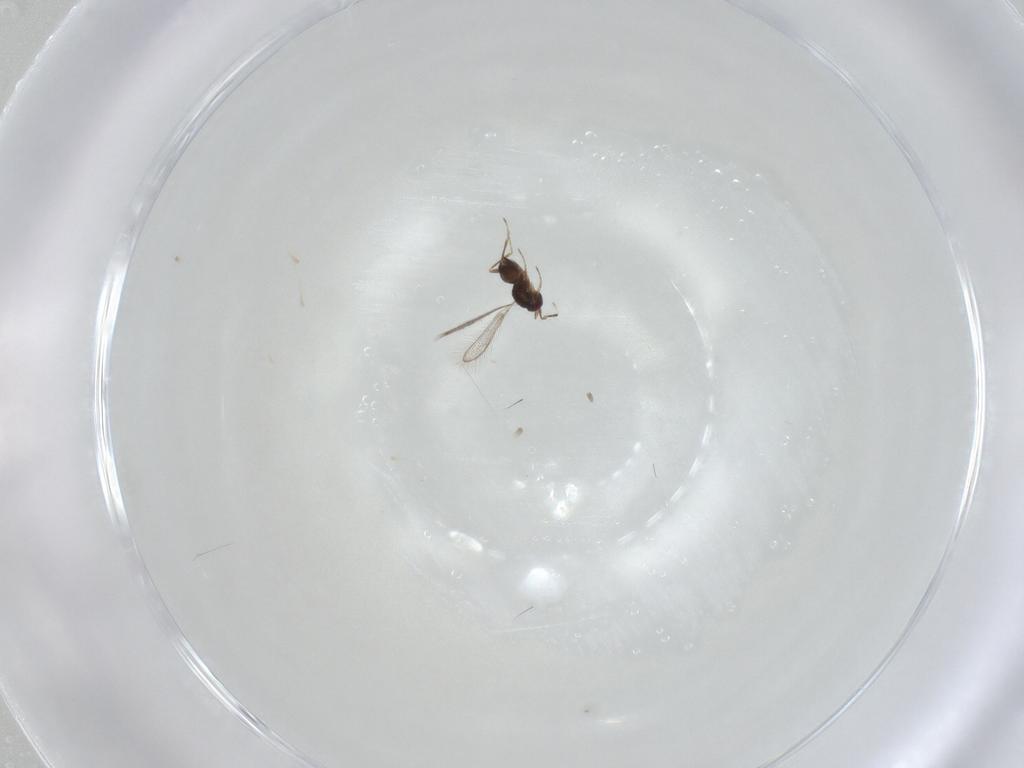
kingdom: Animalia
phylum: Arthropoda
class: Insecta
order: Hymenoptera
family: Mymaridae
